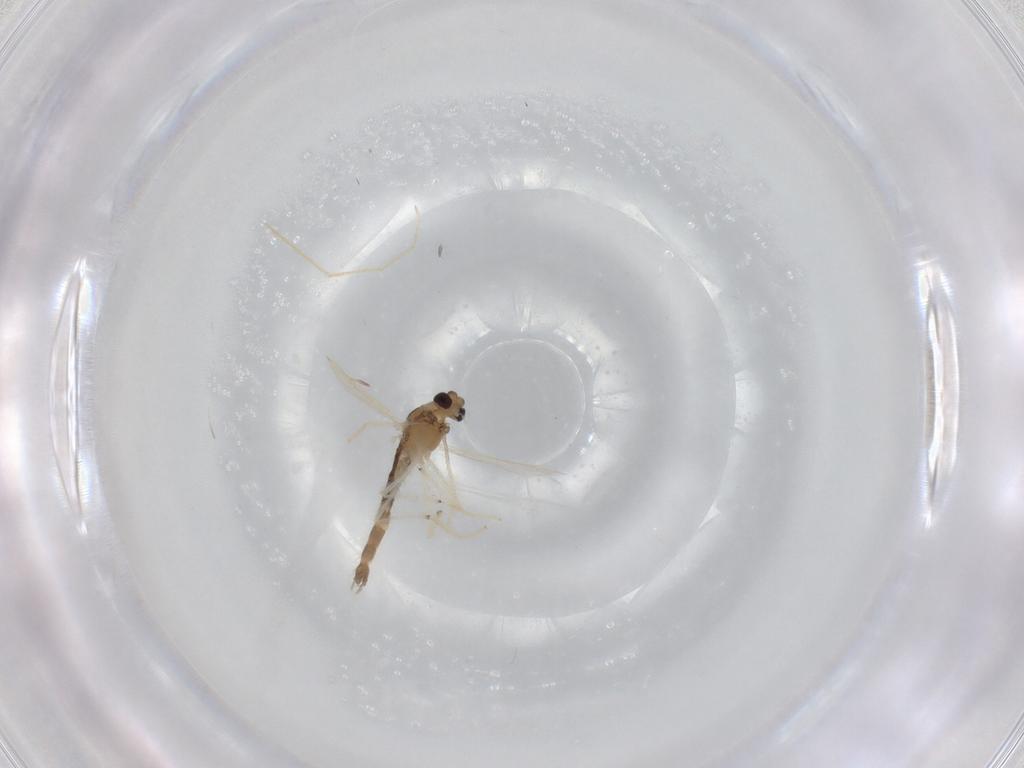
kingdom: Animalia
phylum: Arthropoda
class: Insecta
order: Diptera
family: Chironomidae
